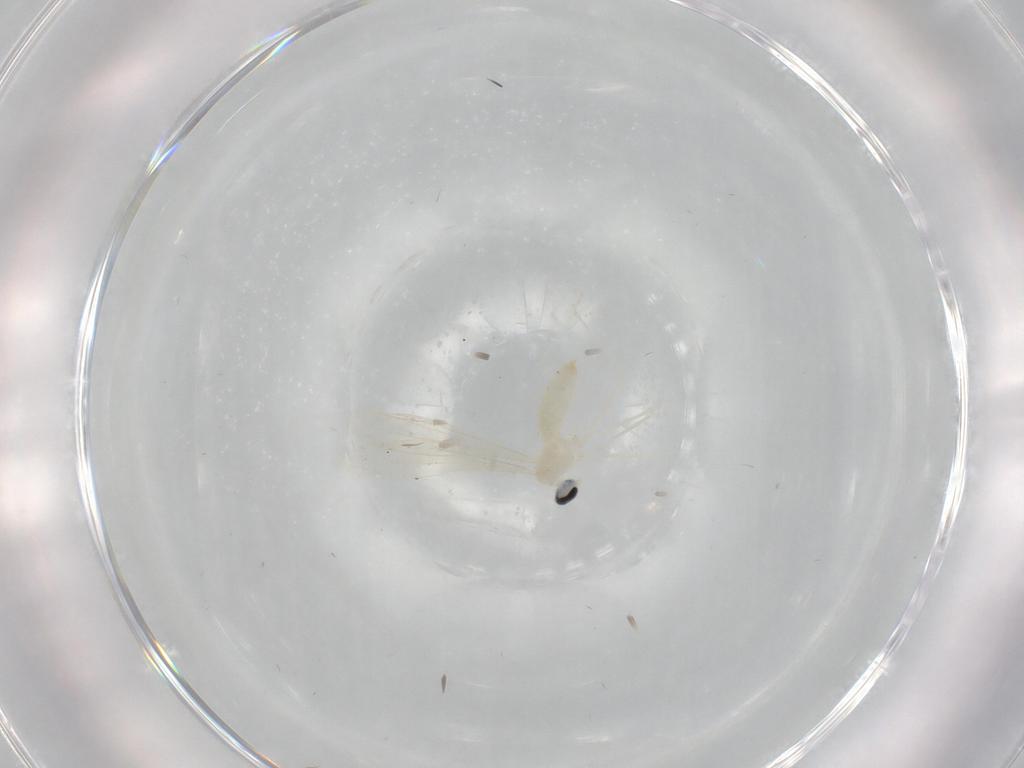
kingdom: Animalia
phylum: Arthropoda
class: Insecta
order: Diptera
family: Cecidomyiidae
